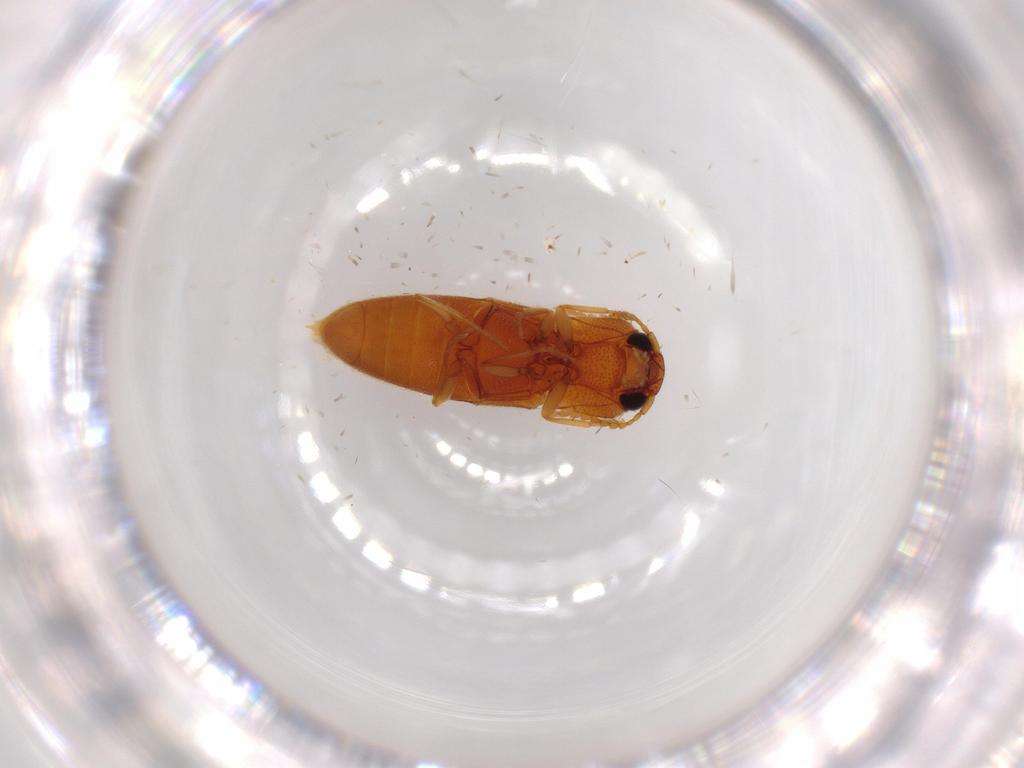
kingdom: Animalia
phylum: Arthropoda
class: Insecta
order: Coleoptera
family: Elateridae
